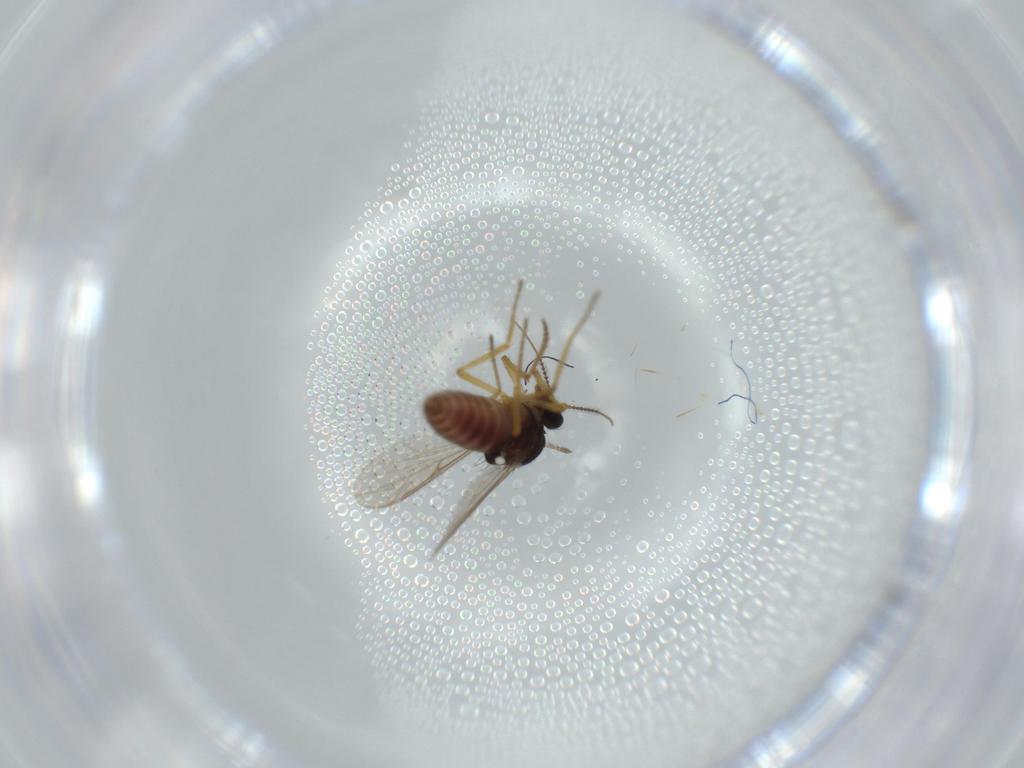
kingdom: Animalia
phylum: Arthropoda
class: Insecta
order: Diptera
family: Ceratopogonidae
